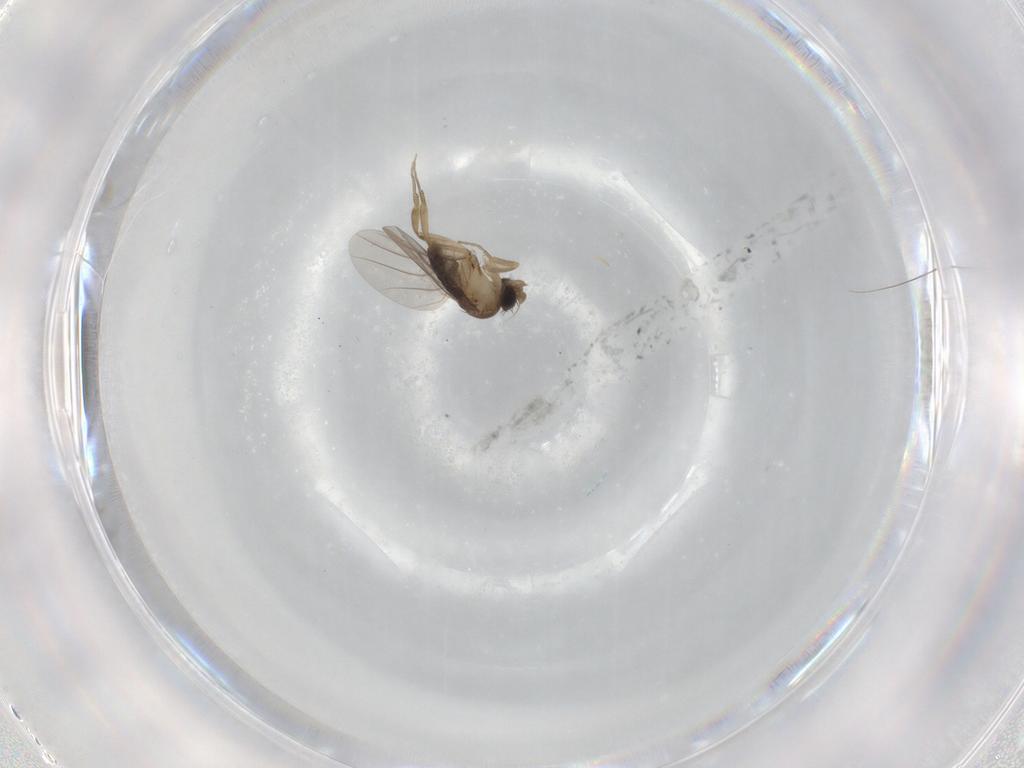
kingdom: Animalia
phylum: Arthropoda
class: Insecta
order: Diptera
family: Phoridae
